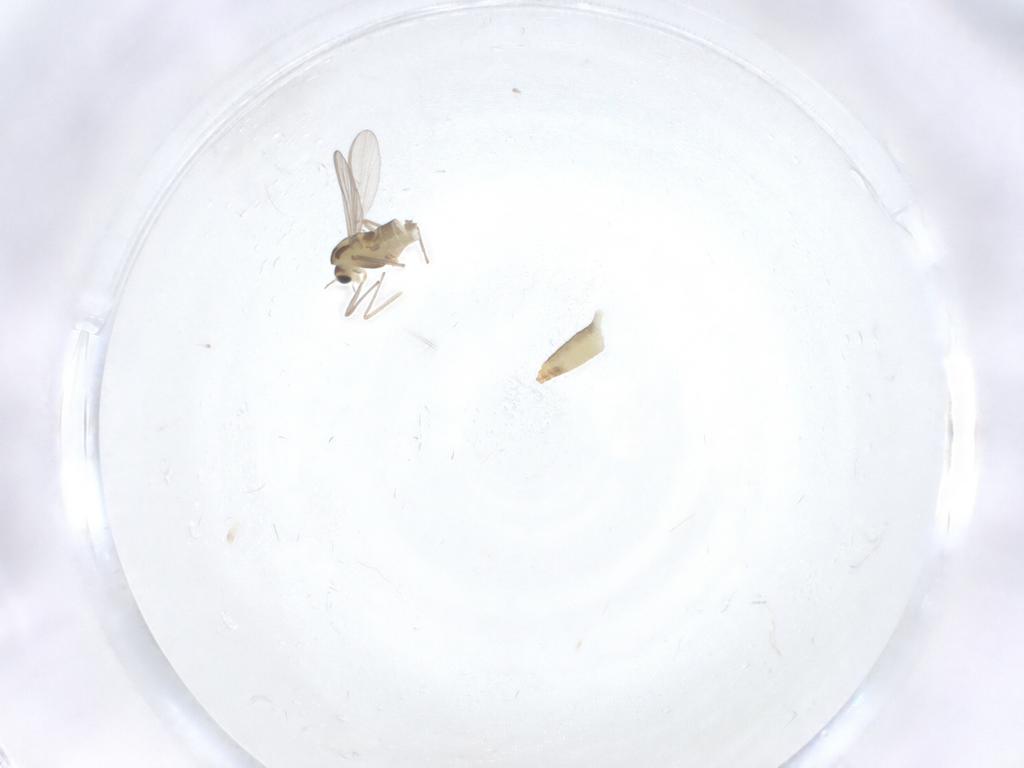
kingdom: Animalia
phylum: Arthropoda
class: Insecta
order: Diptera
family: Chironomidae
